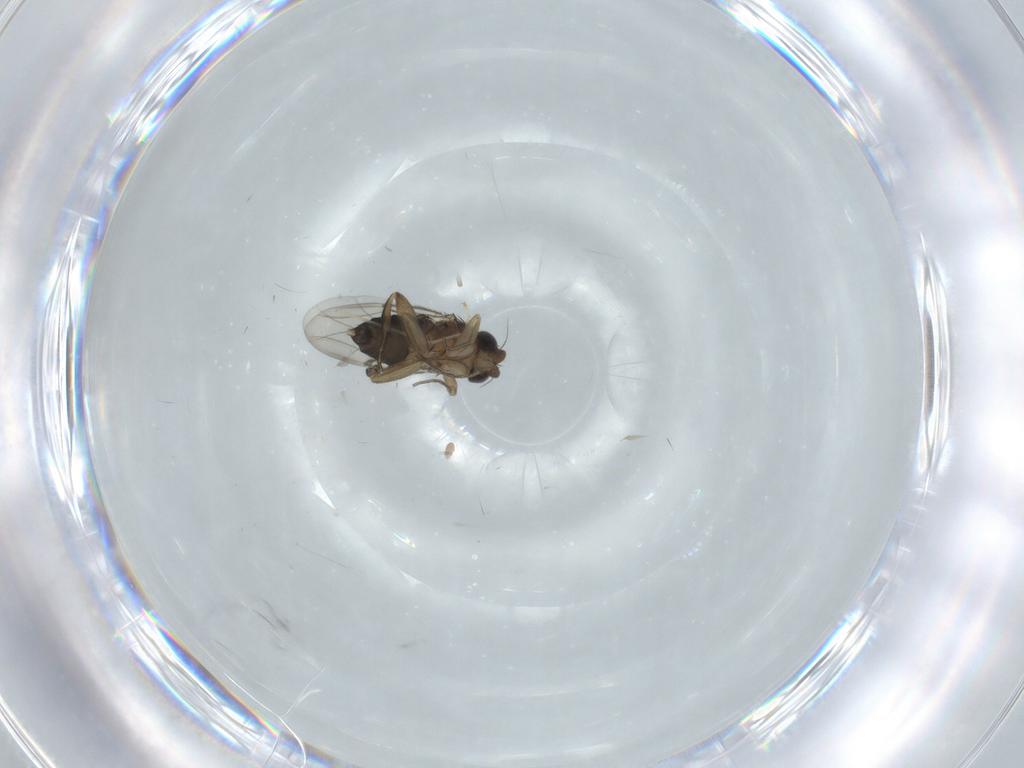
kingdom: Animalia
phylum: Arthropoda
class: Insecta
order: Diptera
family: Phoridae
